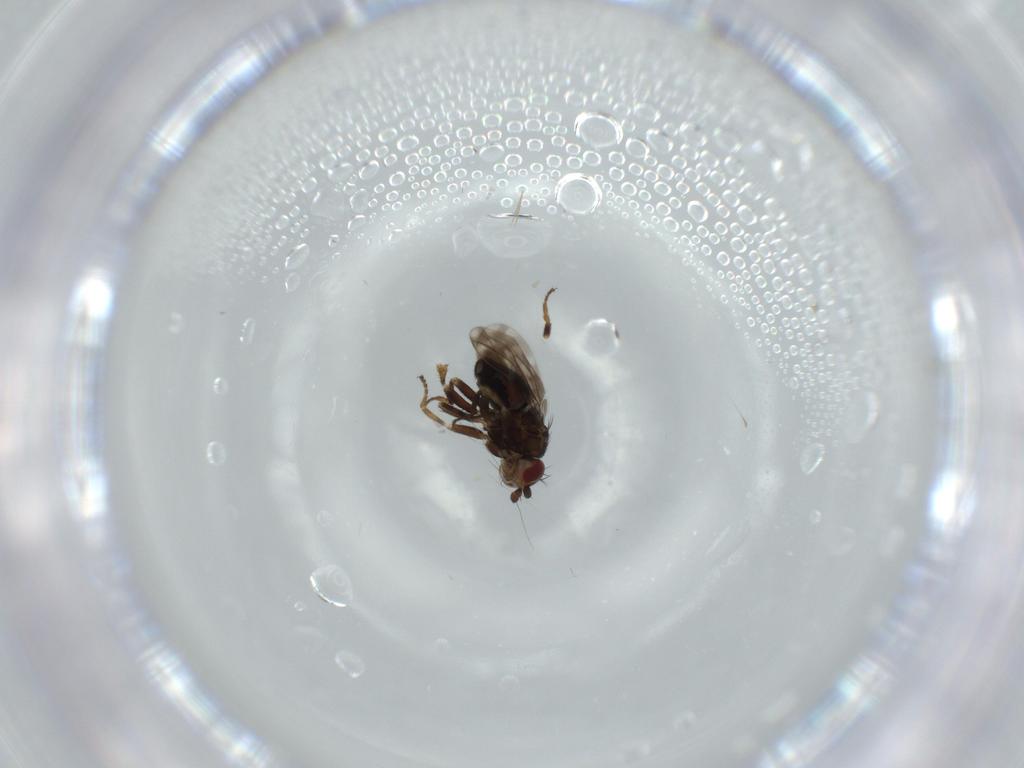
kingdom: Animalia
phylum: Arthropoda
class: Insecta
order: Diptera
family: Sphaeroceridae
